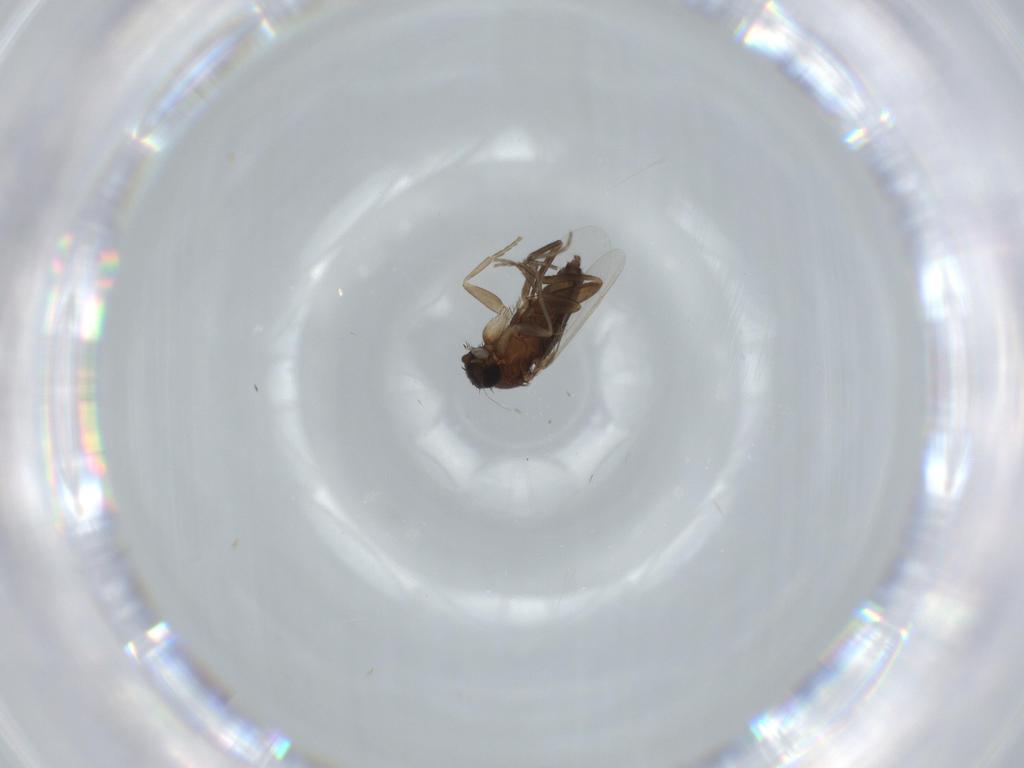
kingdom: Animalia
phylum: Arthropoda
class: Insecta
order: Diptera
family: Phoridae
